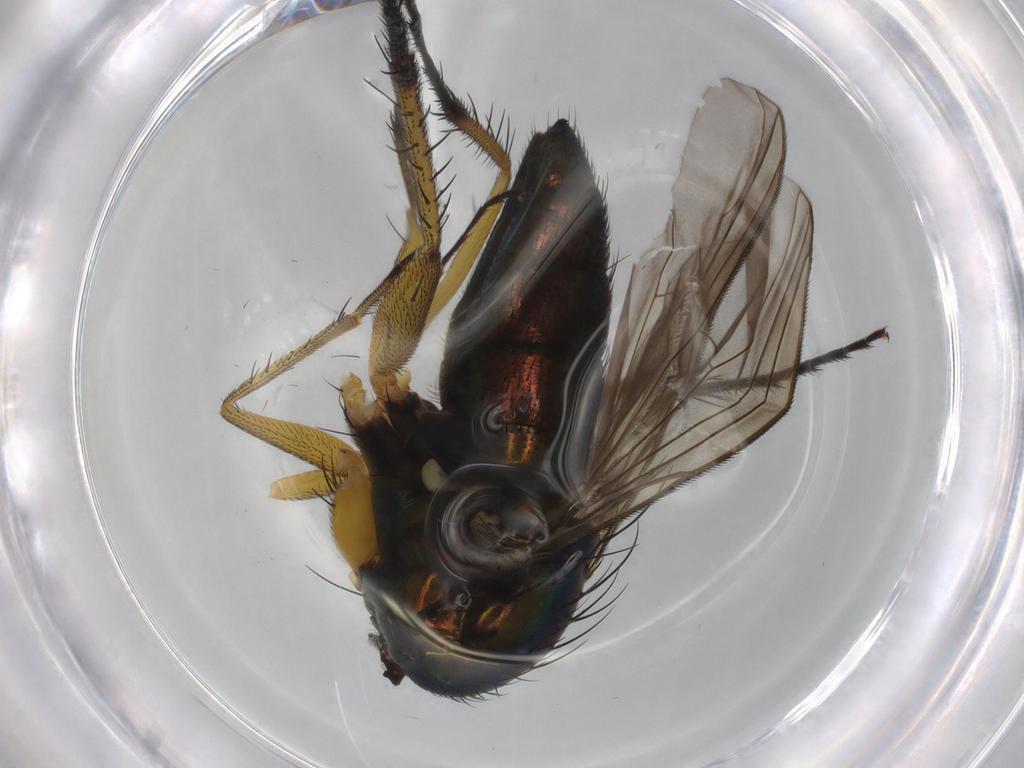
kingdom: Animalia
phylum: Arthropoda
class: Insecta
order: Diptera
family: Dolichopodidae
